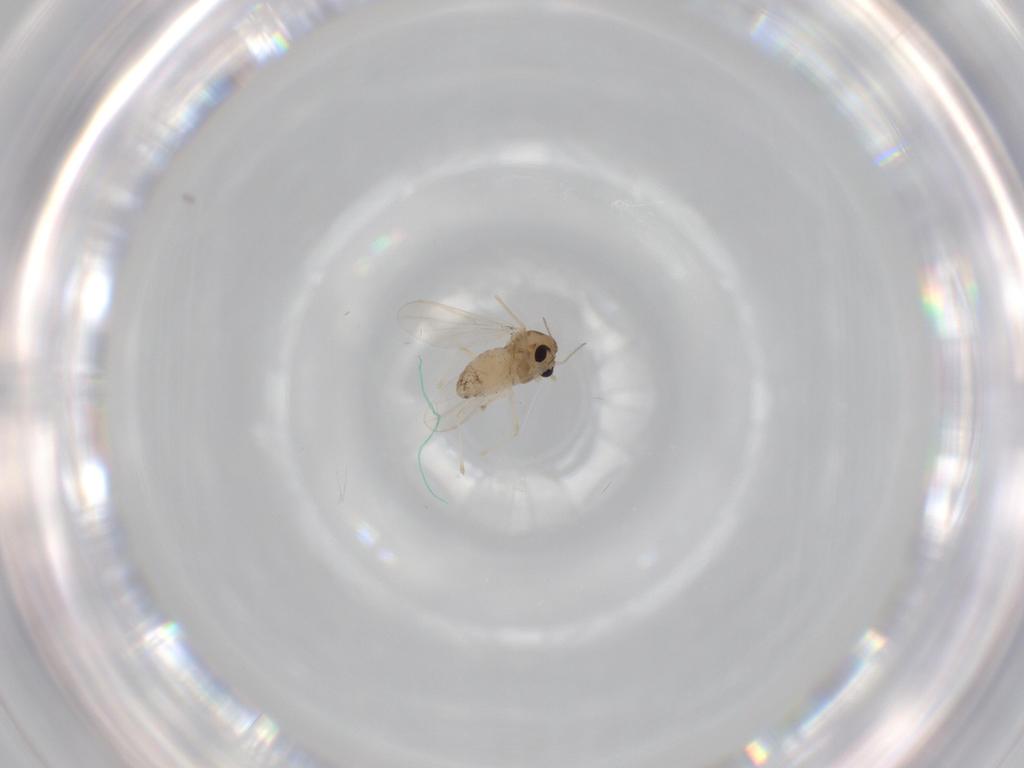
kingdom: Animalia
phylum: Arthropoda
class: Insecta
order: Diptera
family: Chironomidae
